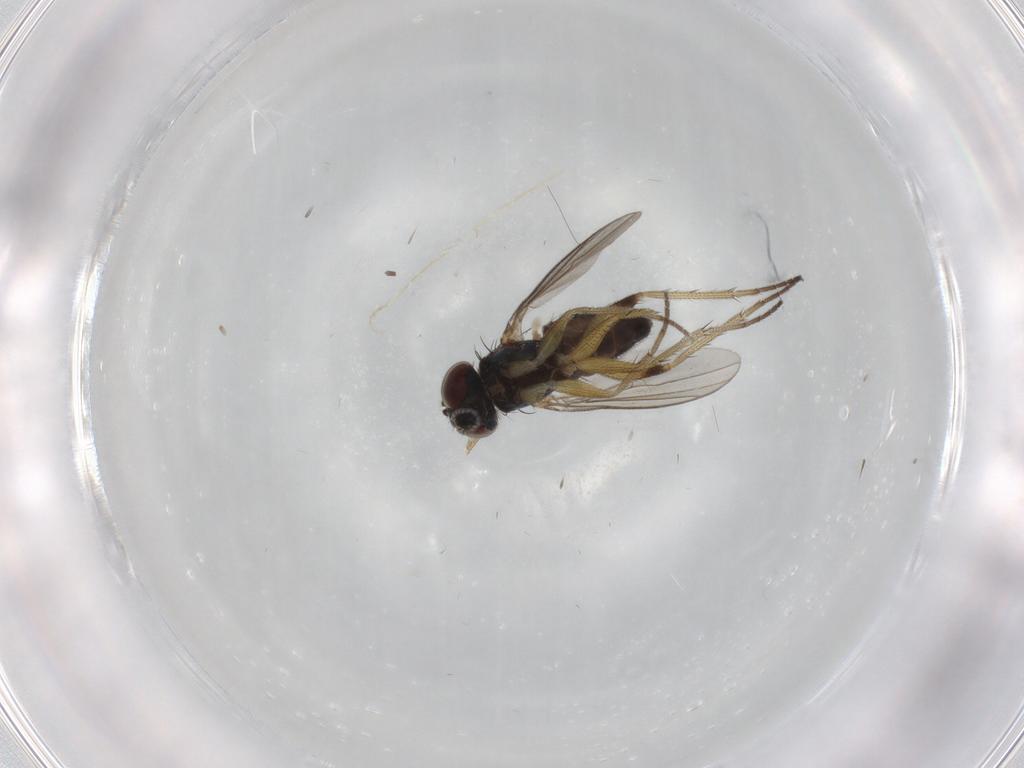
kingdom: Animalia
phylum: Arthropoda
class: Insecta
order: Diptera
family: Dolichopodidae
